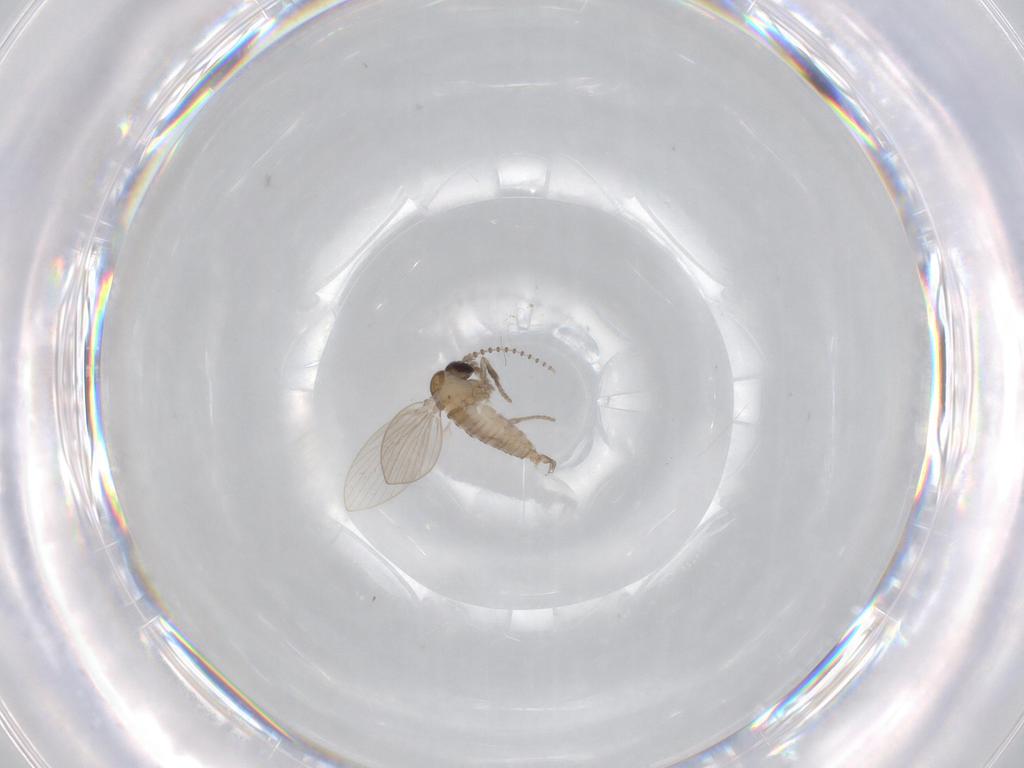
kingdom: Animalia
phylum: Arthropoda
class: Insecta
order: Diptera
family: Psychodidae
